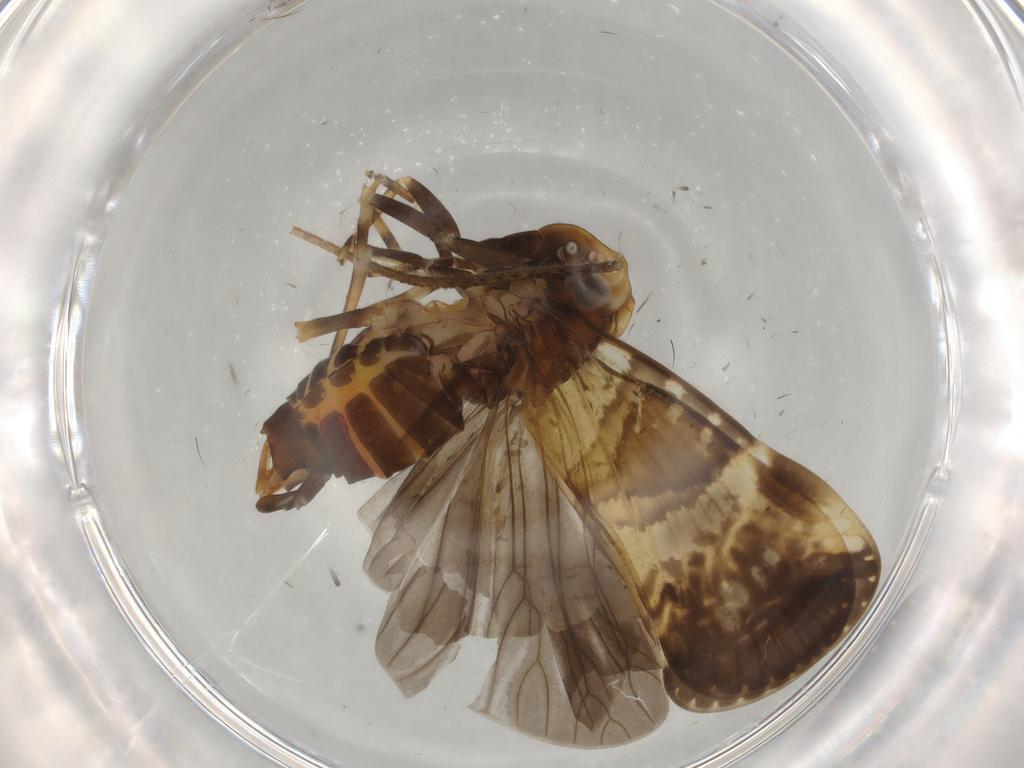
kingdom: Animalia
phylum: Arthropoda
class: Insecta
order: Hemiptera
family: Cixiidae
